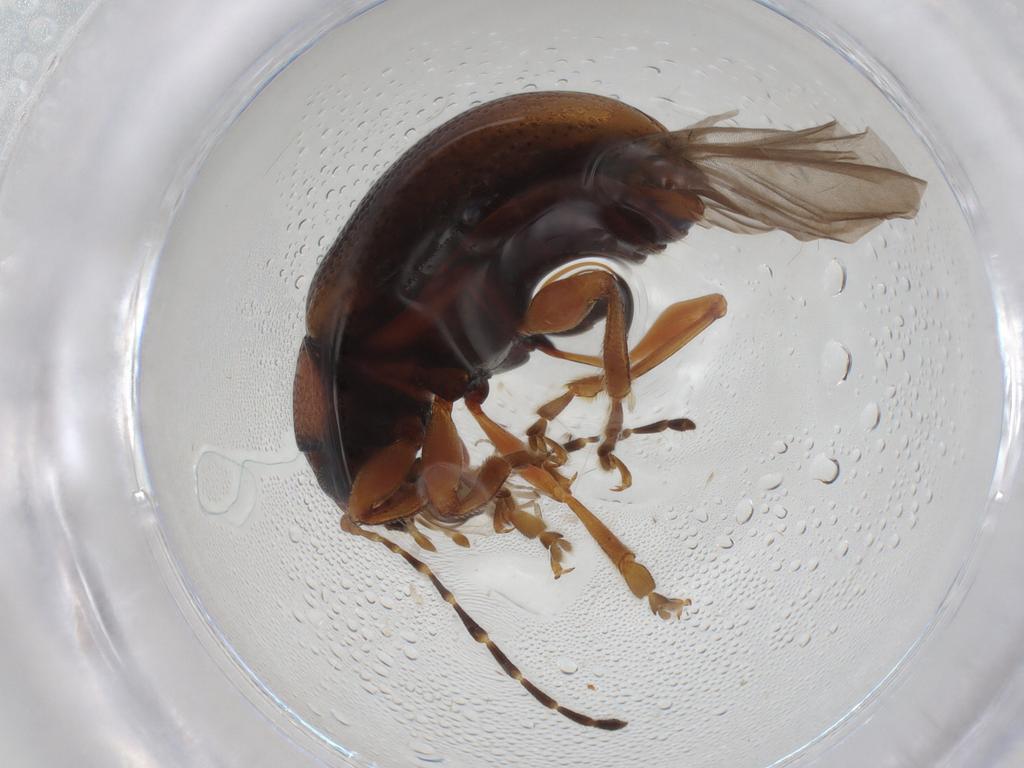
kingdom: Animalia
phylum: Arthropoda
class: Insecta
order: Coleoptera
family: Chrysomelidae
